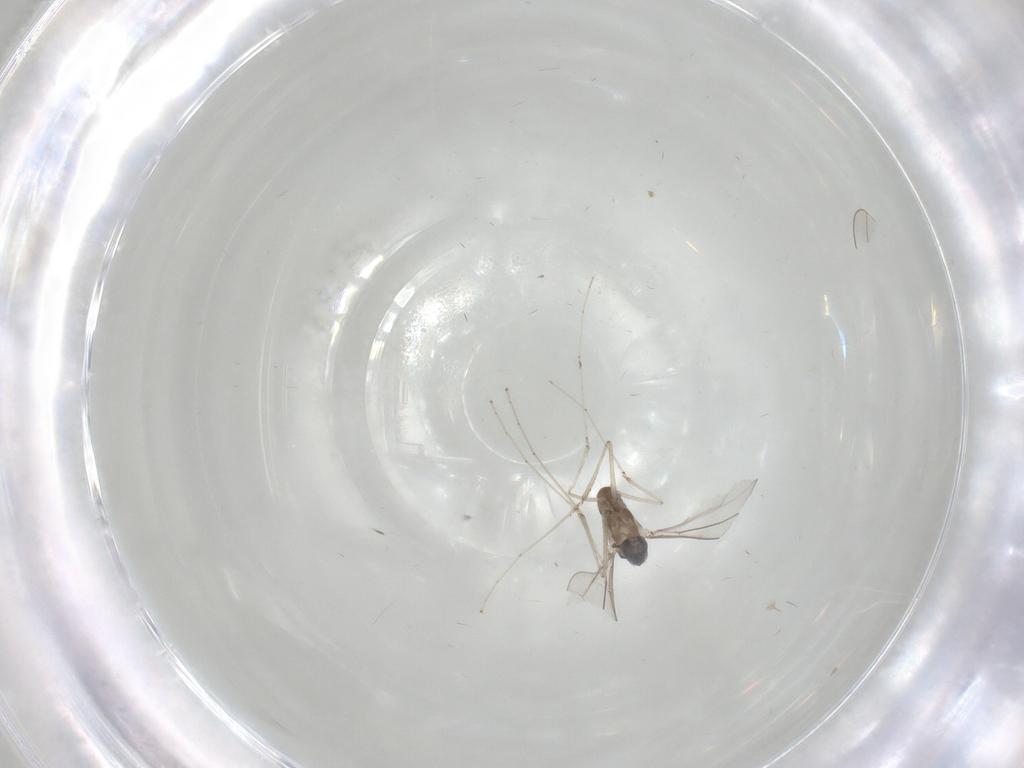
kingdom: Animalia
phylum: Arthropoda
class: Insecta
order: Diptera
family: Cecidomyiidae
